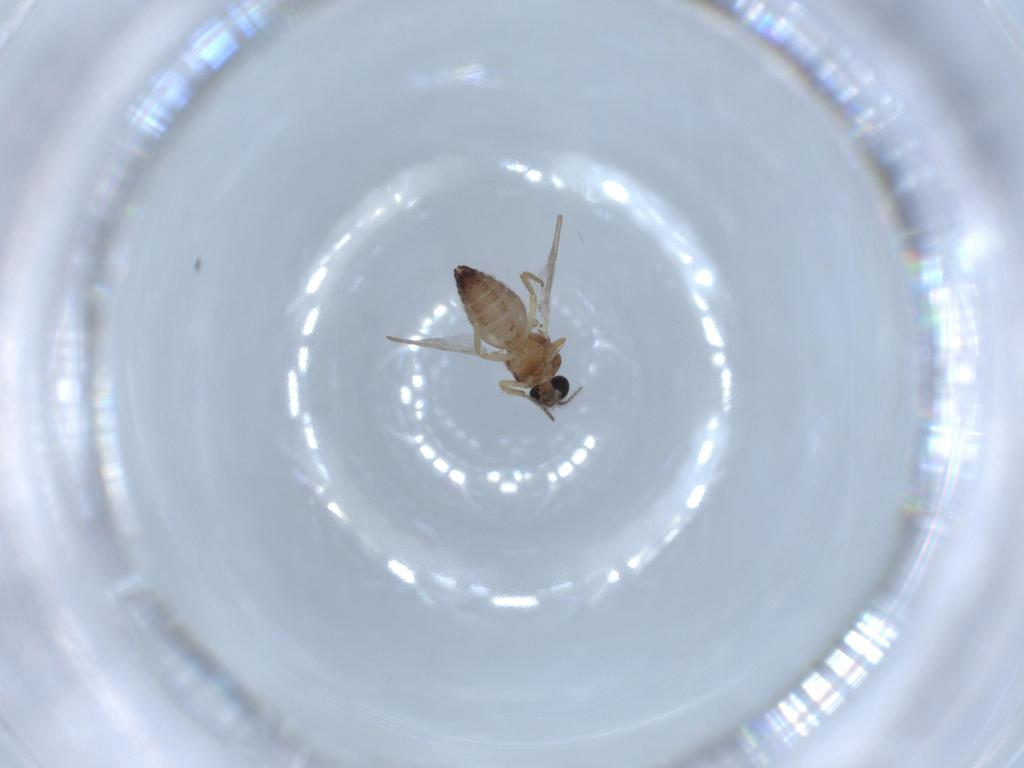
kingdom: Animalia
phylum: Arthropoda
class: Insecta
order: Diptera
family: Ceratopogonidae
